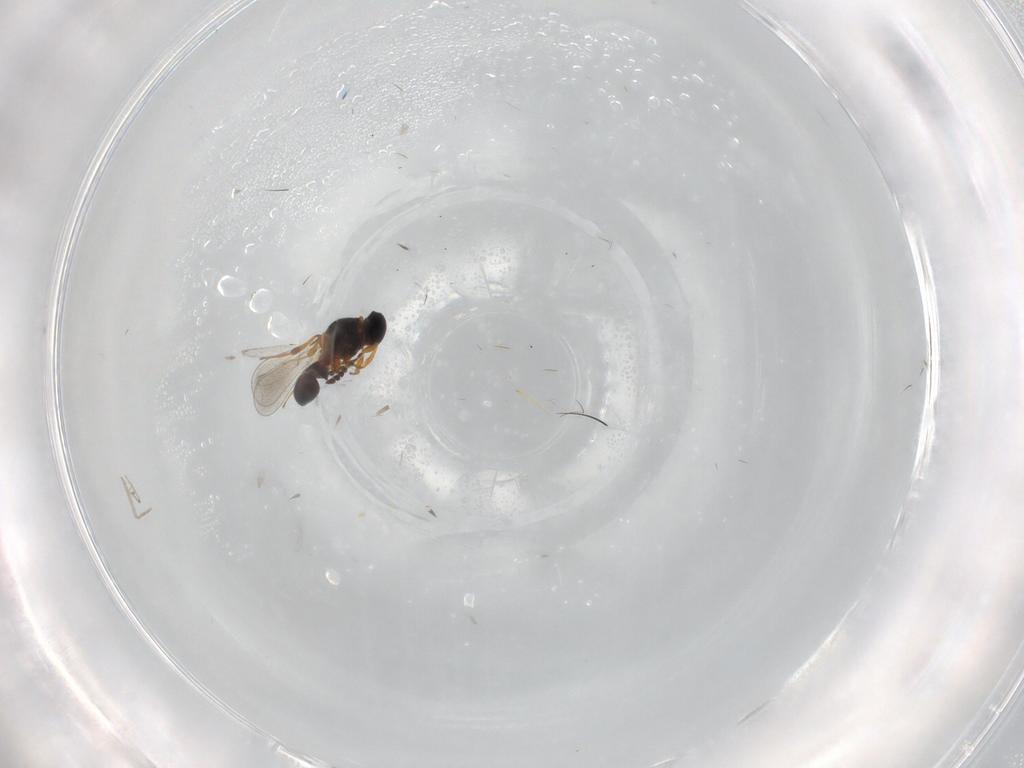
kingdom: Animalia
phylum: Arthropoda
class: Insecta
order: Hymenoptera
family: Platygastridae
